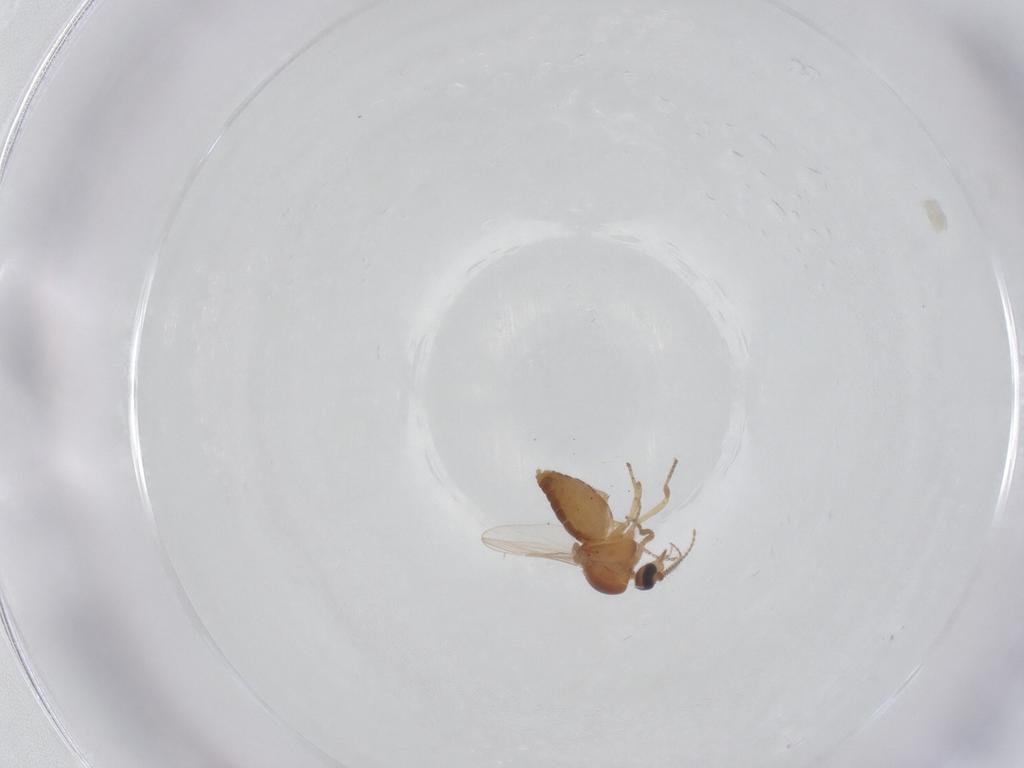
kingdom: Animalia
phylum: Arthropoda
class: Insecta
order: Diptera
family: Ceratopogonidae
